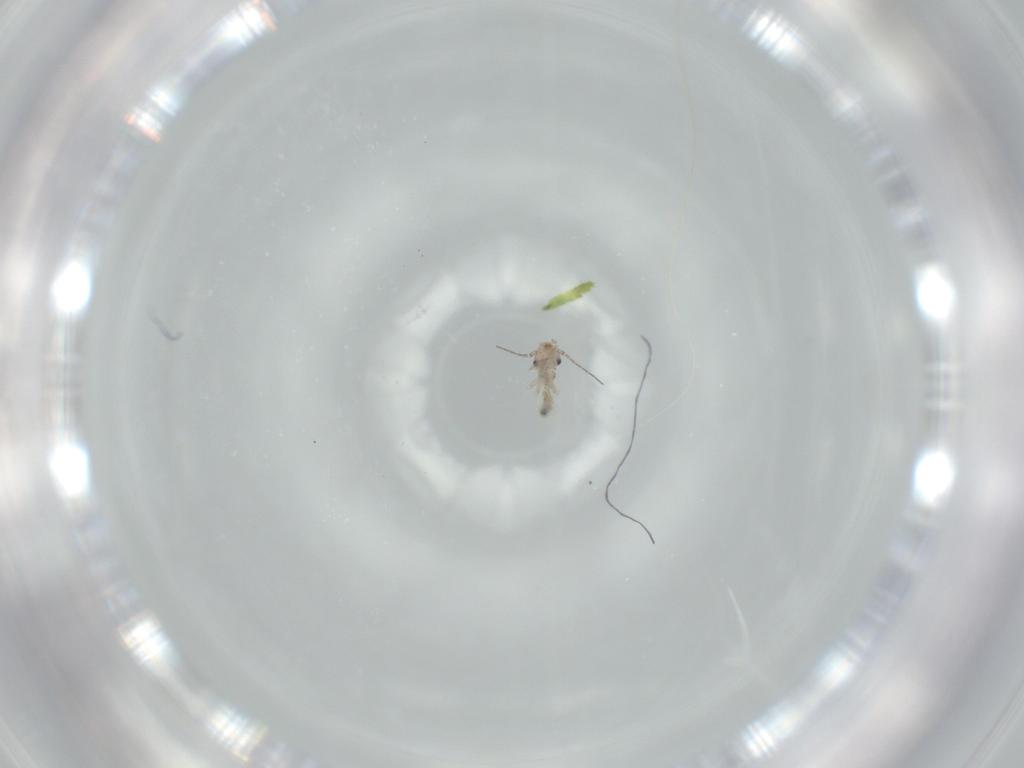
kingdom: Animalia
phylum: Arthropoda
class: Insecta
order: Psocodea
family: Lepidopsocidae
